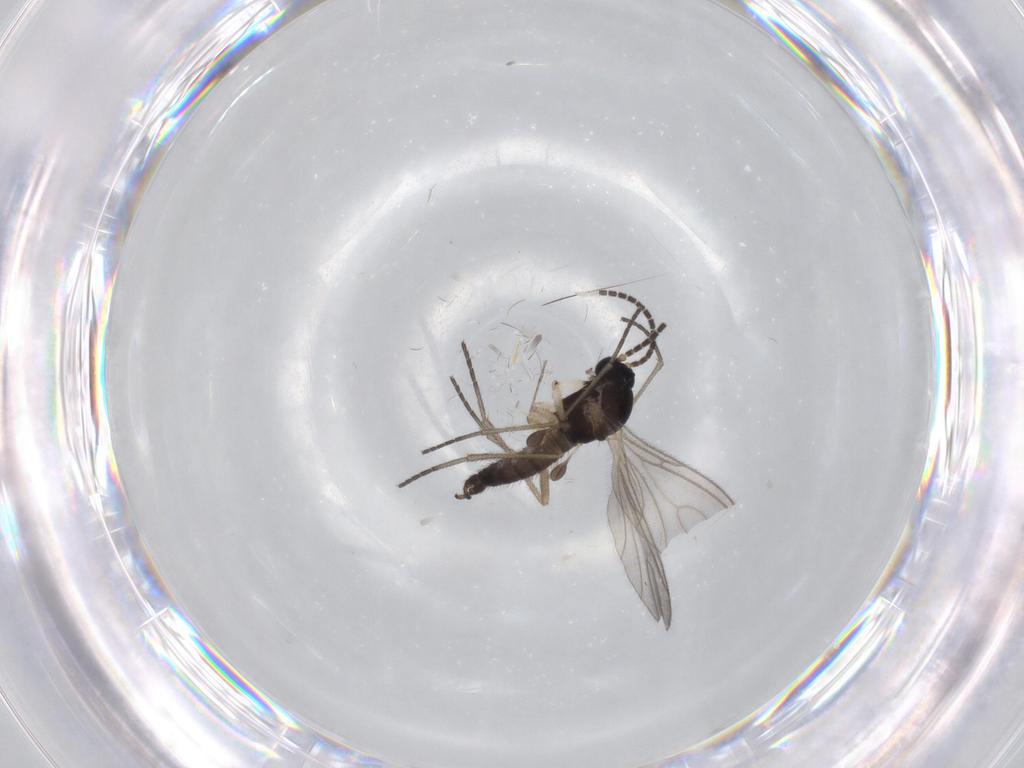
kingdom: Animalia
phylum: Arthropoda
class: Insecta
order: Diptera
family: Sciaridae
